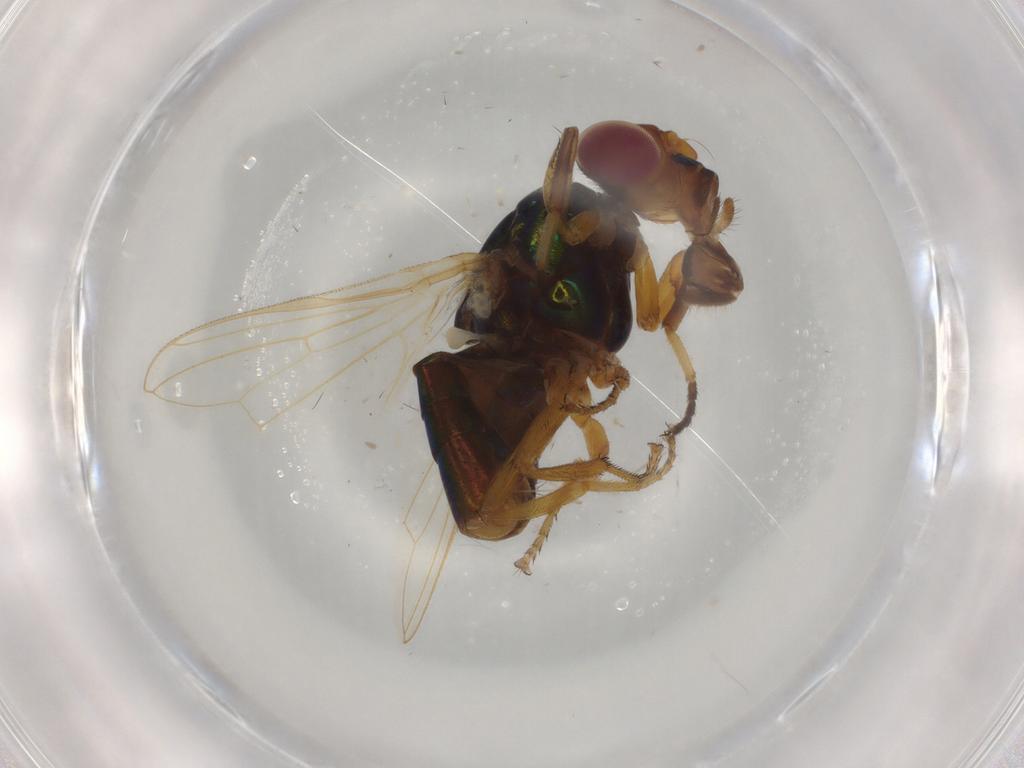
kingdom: Animalia
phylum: Arthropoda
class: Insecta
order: Diptera
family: Ulidiidae
